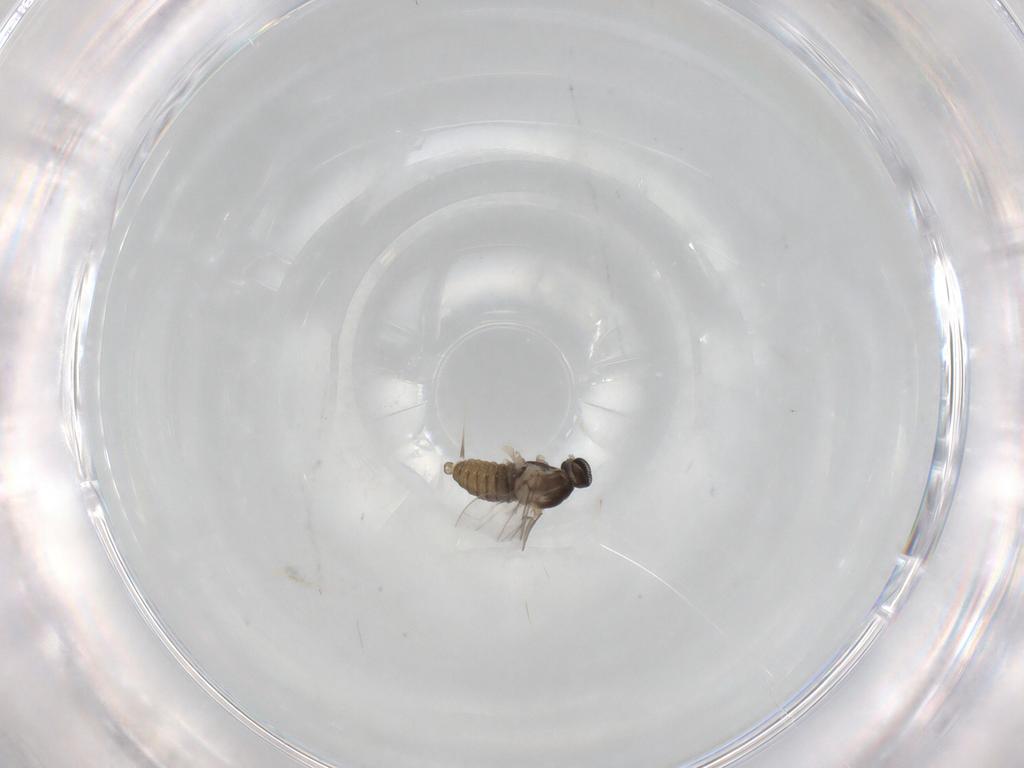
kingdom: Animalia
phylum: Arthropoda
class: Insecta
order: Diptera
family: Cecidomyiidae
